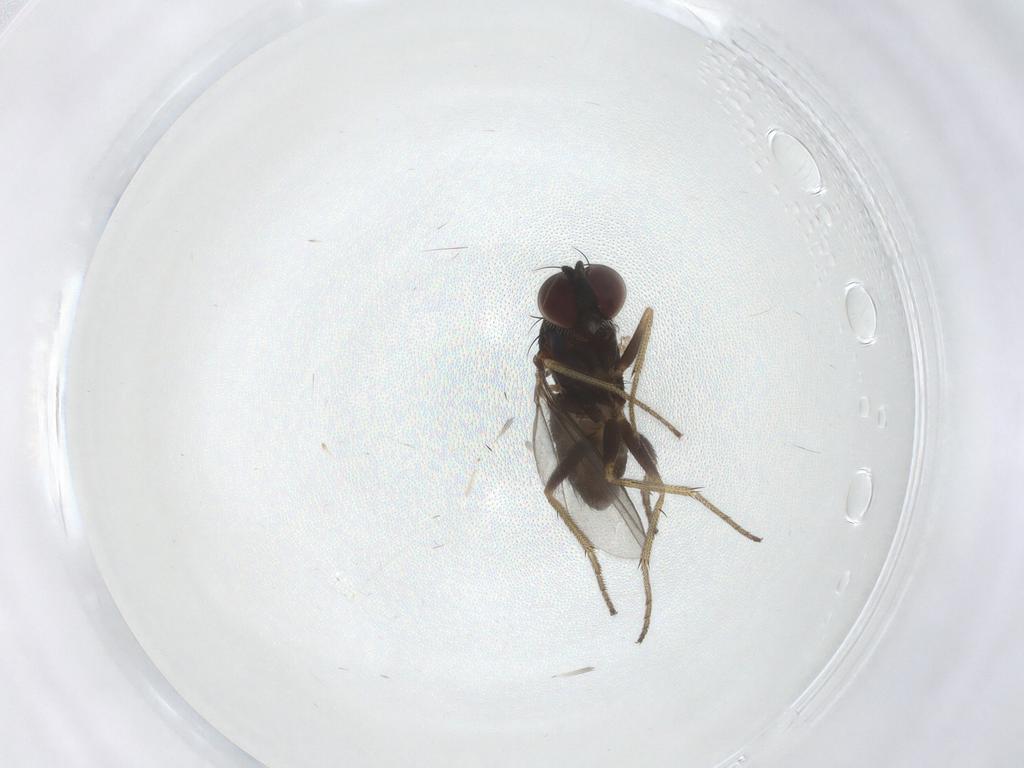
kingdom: Animalia
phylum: Arthropoda
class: Insecta
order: Diptera
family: Dolichopodidae
